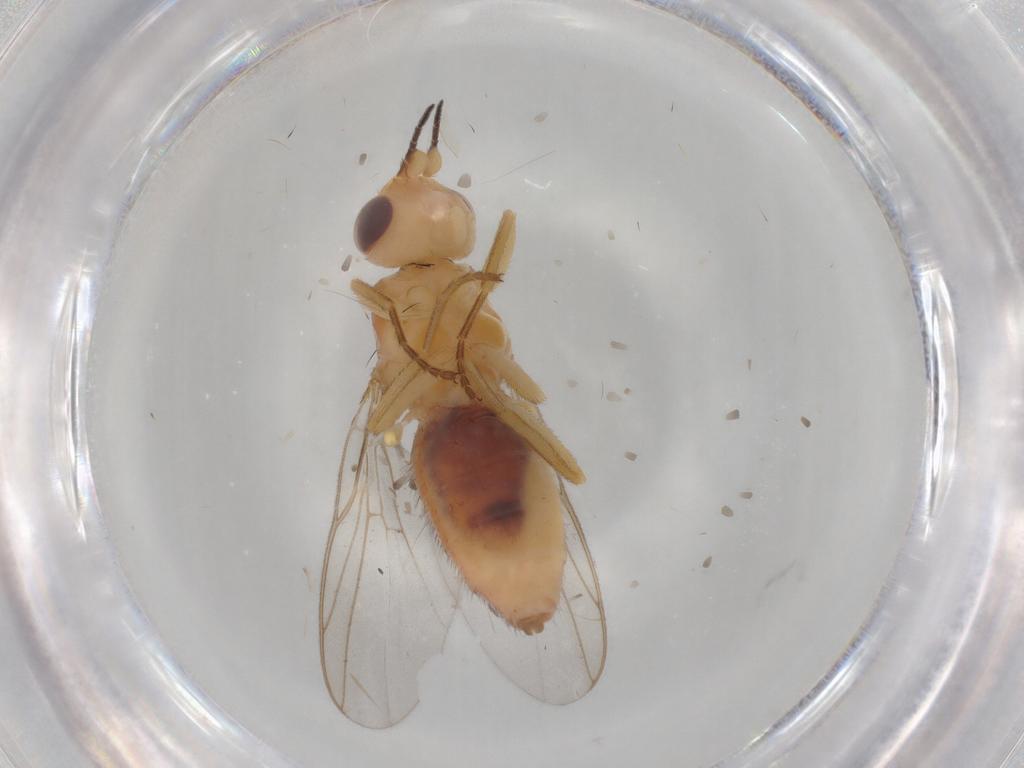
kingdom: Animalia
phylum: Arthropoda
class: Insecta
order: Diptera
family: Chloropidae
